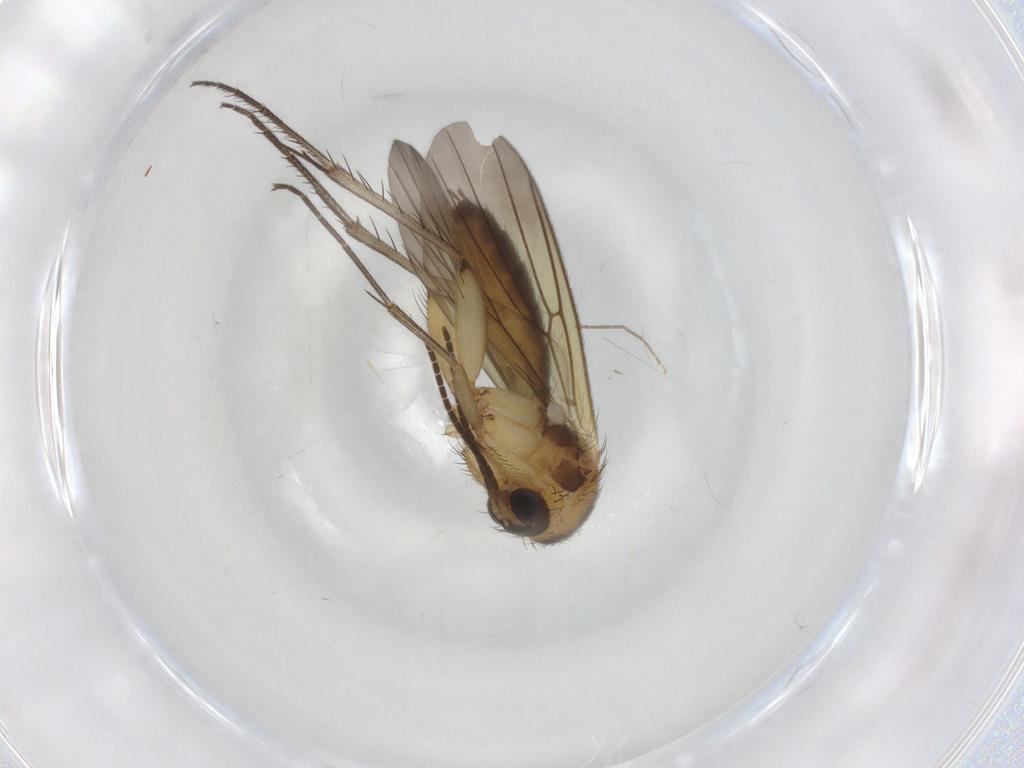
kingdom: Animalia
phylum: Arthropoda
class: Insecta
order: Diptera
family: Mycetophilidae
